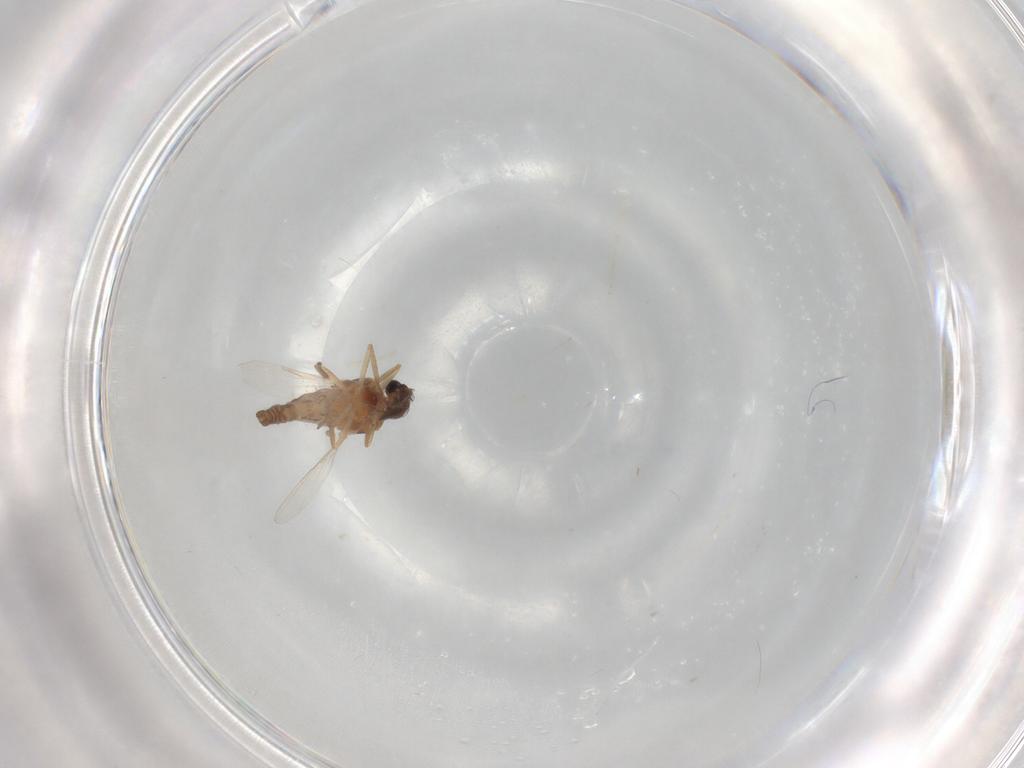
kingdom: Animalia
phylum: Arthropoda
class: Insecta
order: Diptera
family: Ceratopogonidae
